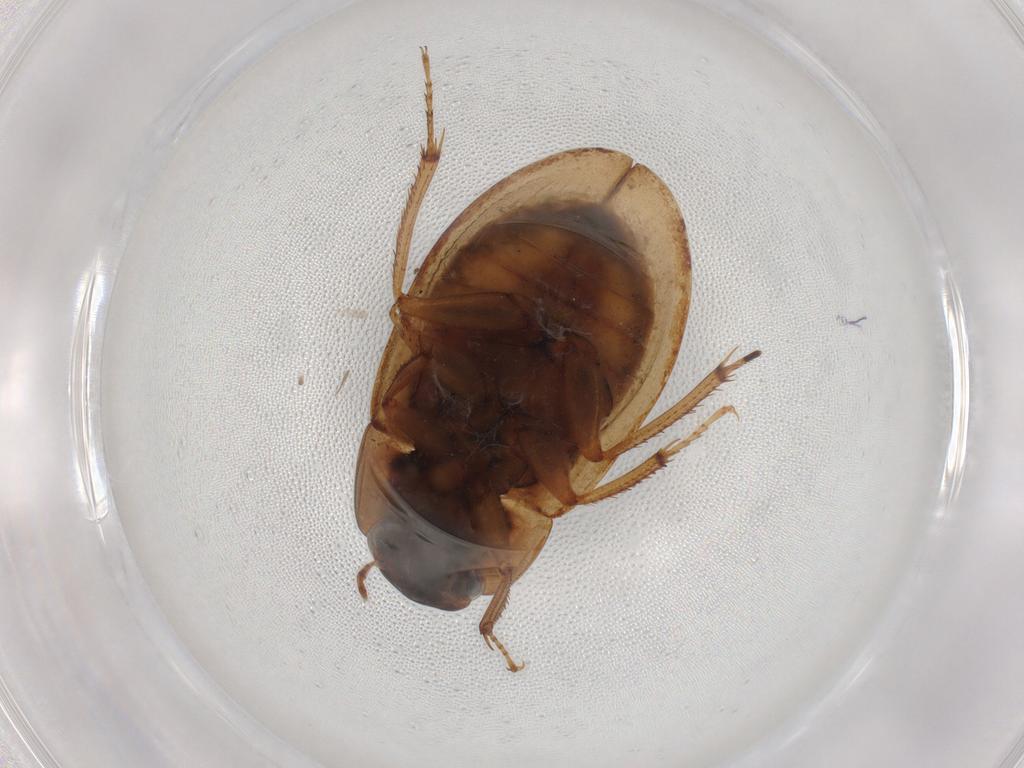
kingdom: Animalia
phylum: Arthropoda
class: Insecta
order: Coleoptera
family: Hydrophilidae
